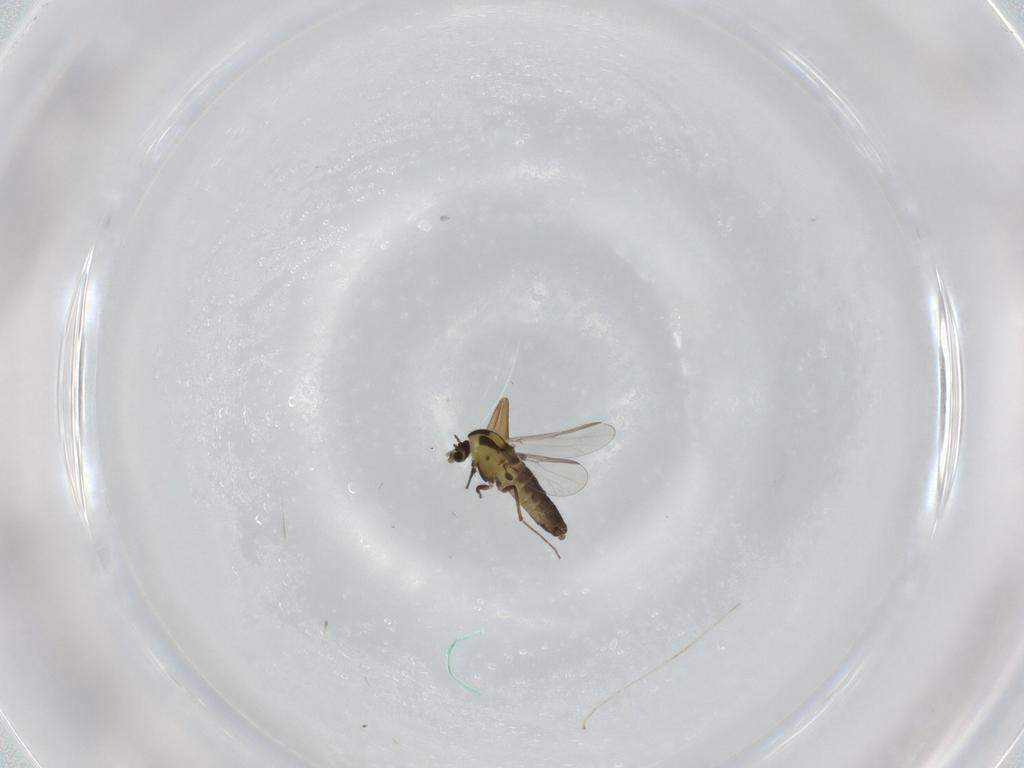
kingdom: Animalia
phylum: Arthropoda
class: Insecta
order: Diptera
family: Chironomidae
